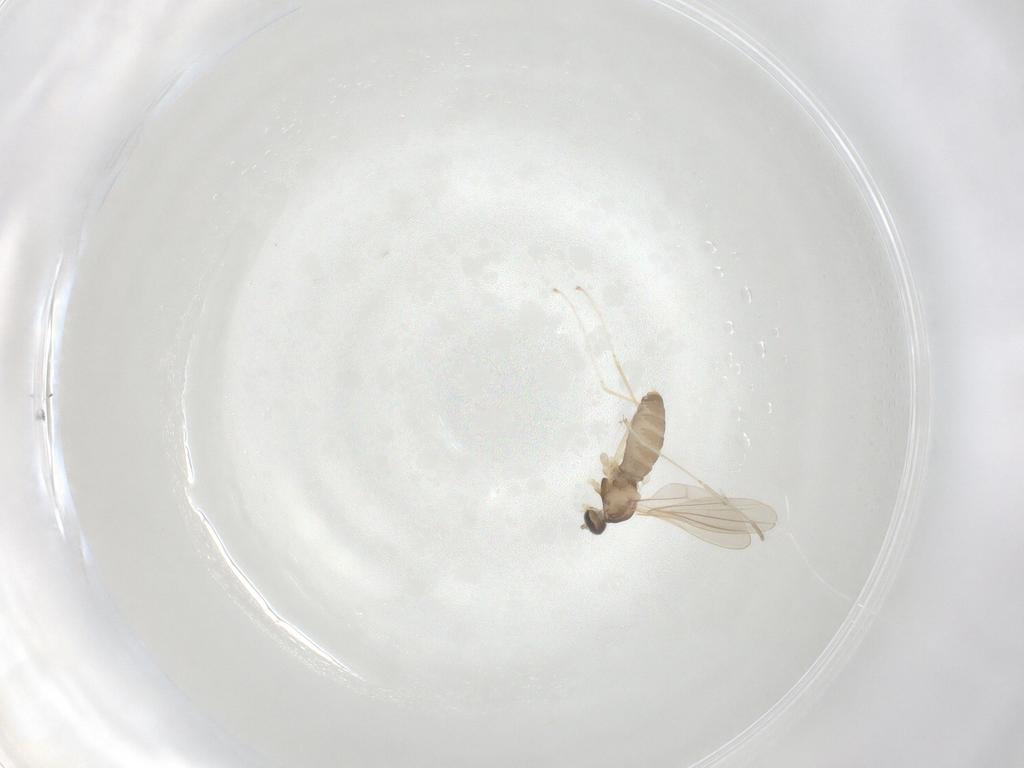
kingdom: Animalia
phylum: Arthropoda
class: Insecta
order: Diptera
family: Cecidomyiidae
